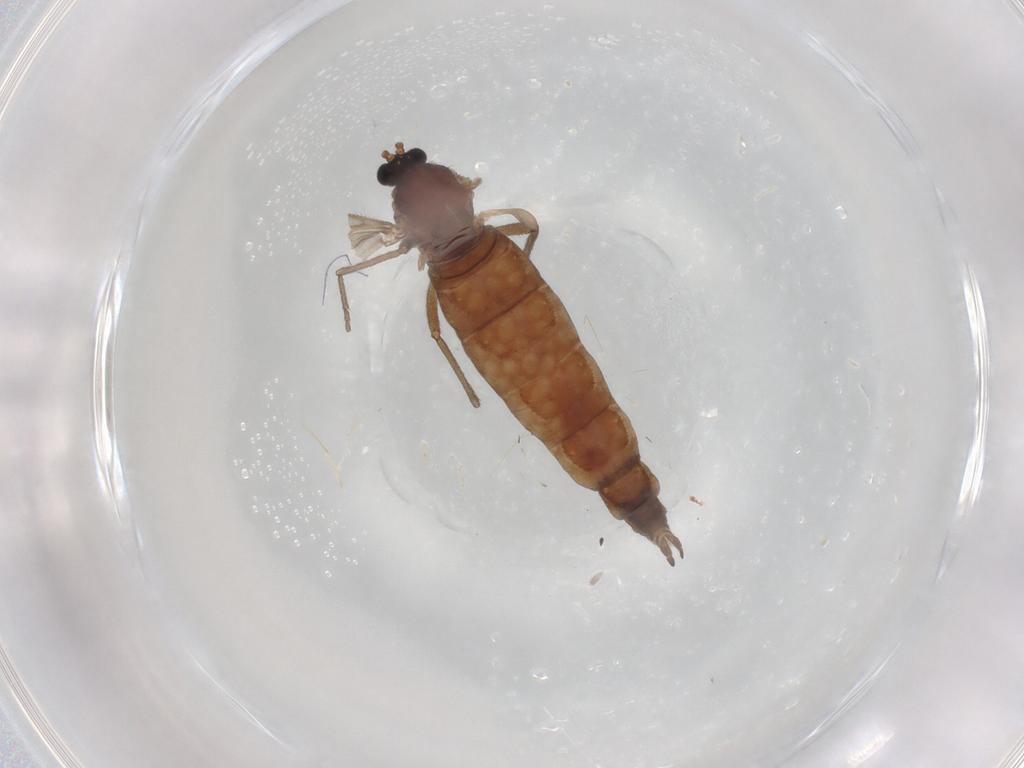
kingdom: Animalia
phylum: Arthropoda
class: Insecta
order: Diptera
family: Sciaridae
